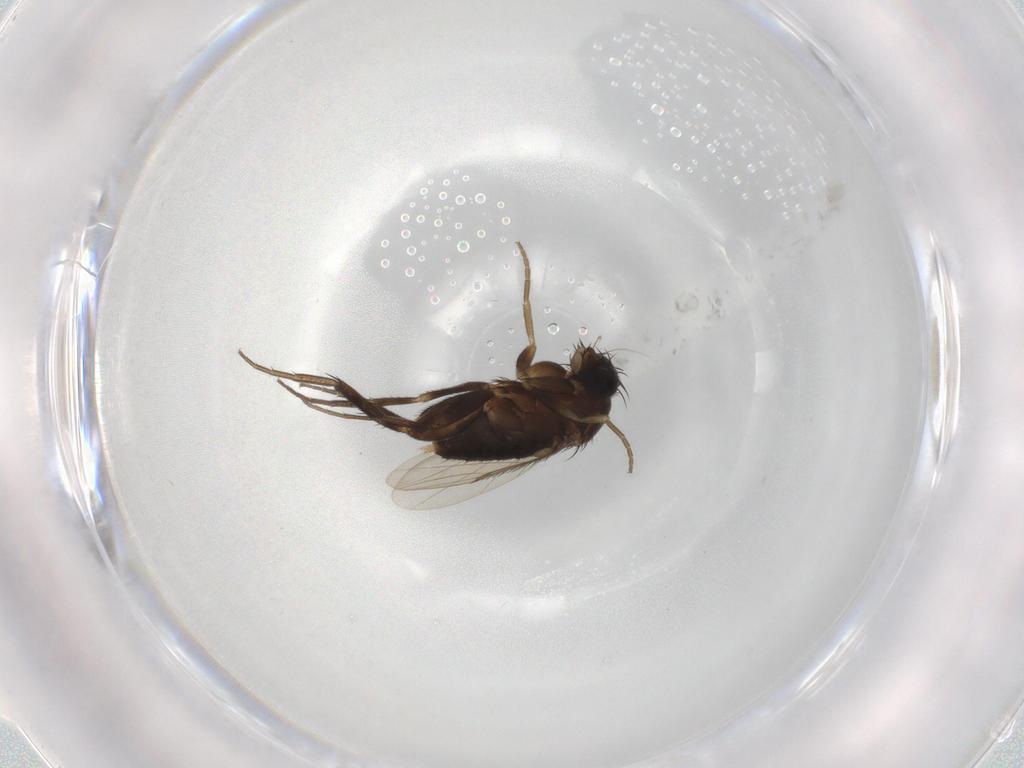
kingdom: Animalia
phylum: Arthropoda
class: Insecta
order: Diptera
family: Phoridae
